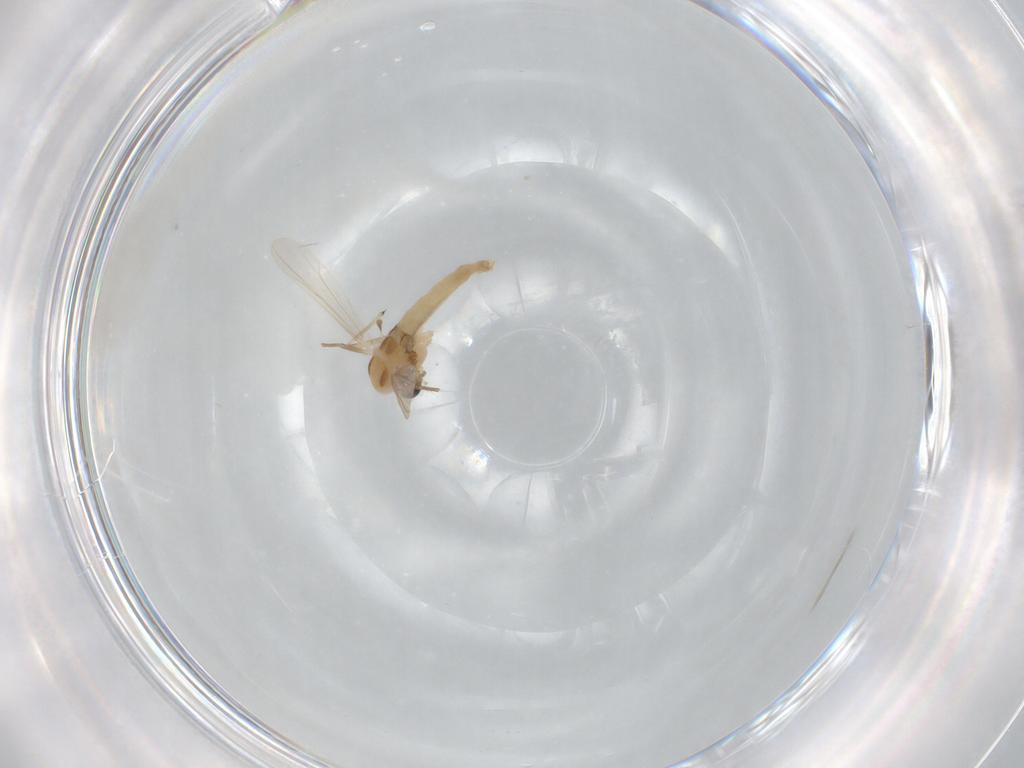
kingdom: Animalia
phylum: Arthropoda
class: Insecta
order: Diptera
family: Chironomidae
